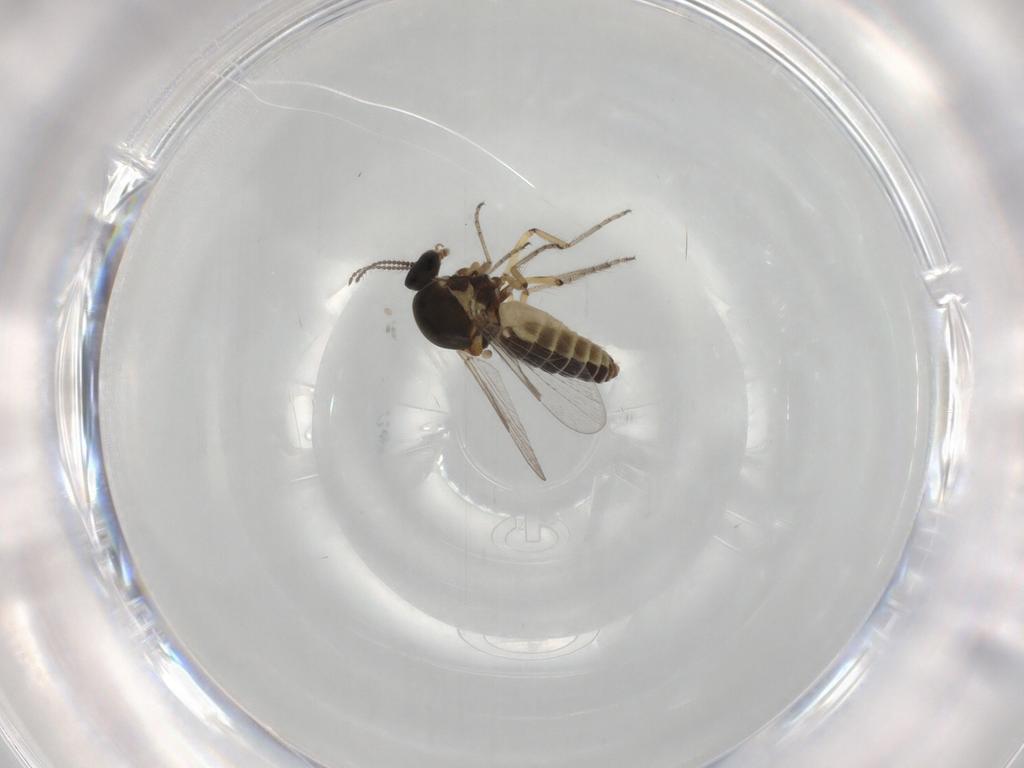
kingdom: Animalia
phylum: Arthropoda
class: Insecta
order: Diptera
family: Ceratopogonidae
